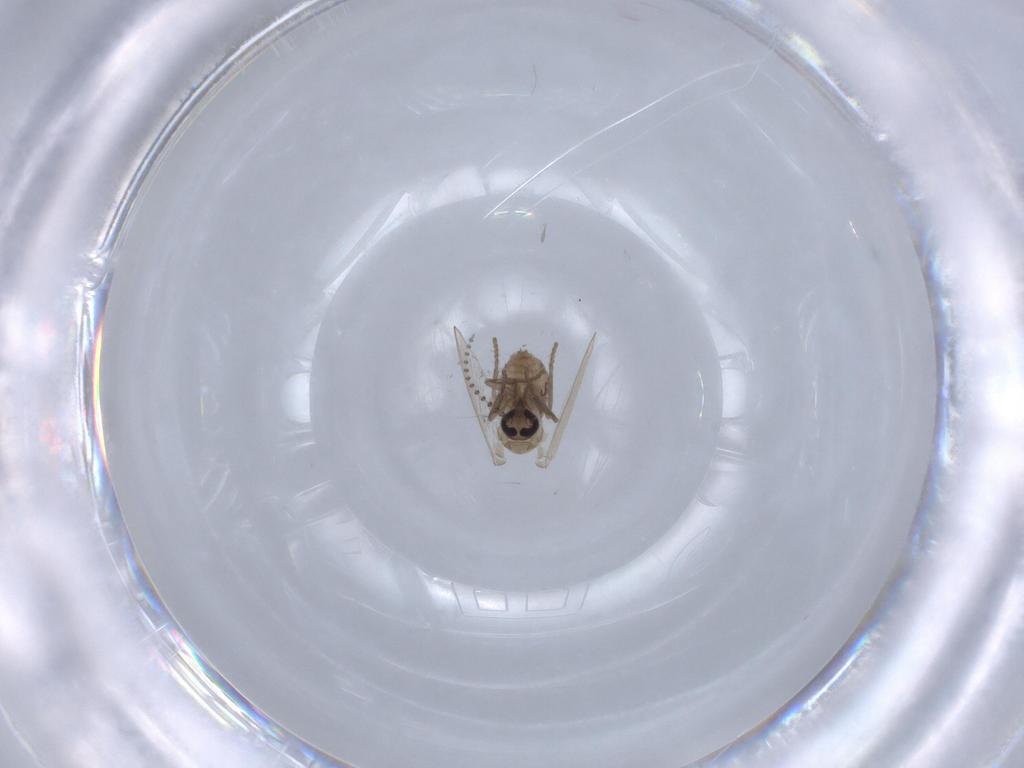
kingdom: Animalia
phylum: Arthropoda
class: Insecta
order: Diptera
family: Psychodidae
